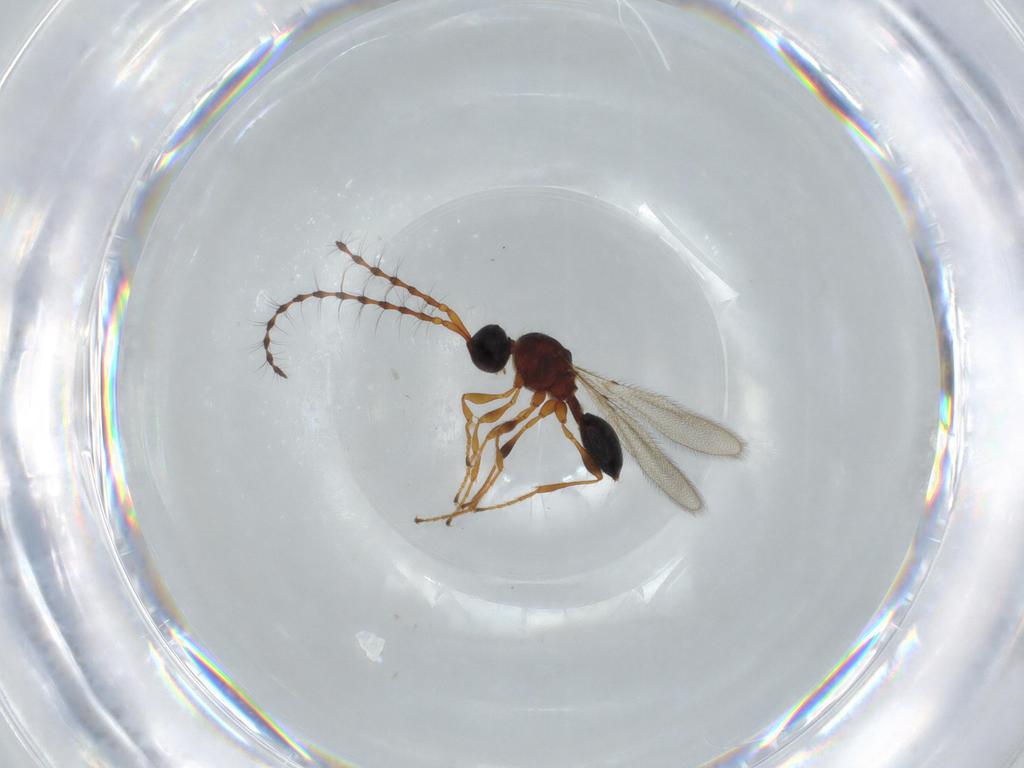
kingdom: Animalia
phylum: Arthropoda
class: Insecta
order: Hymenoptera
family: Diapriidae
